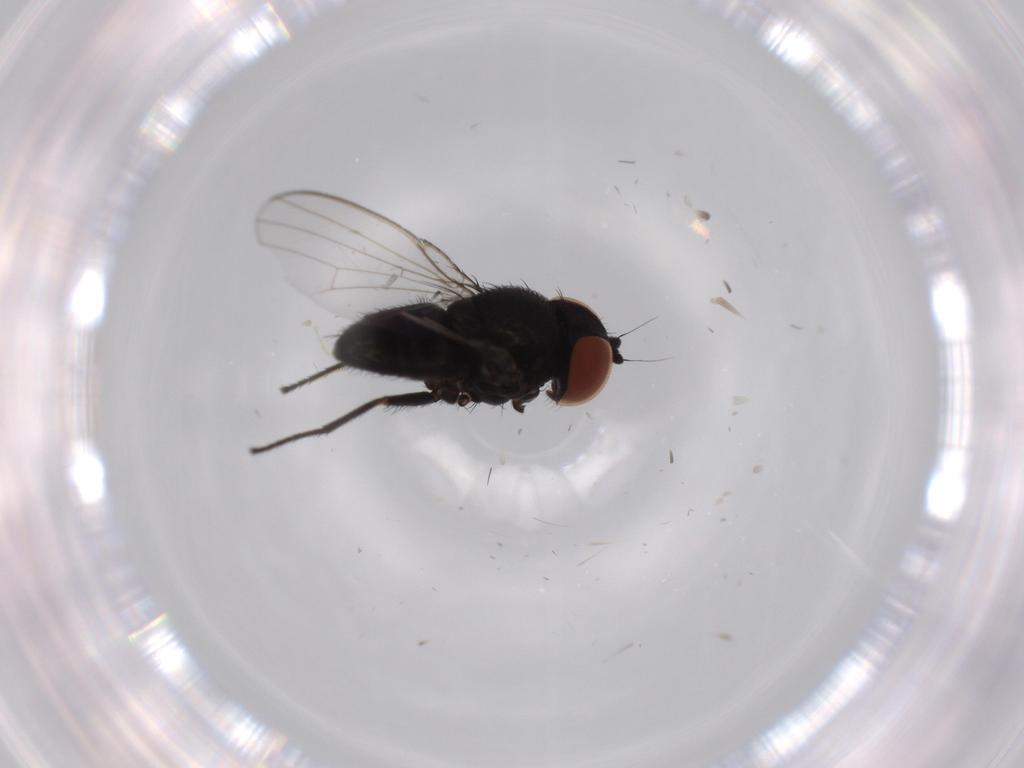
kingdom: Animalia
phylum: Arthropoda
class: Insecta
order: Diptera
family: Milichiidae
